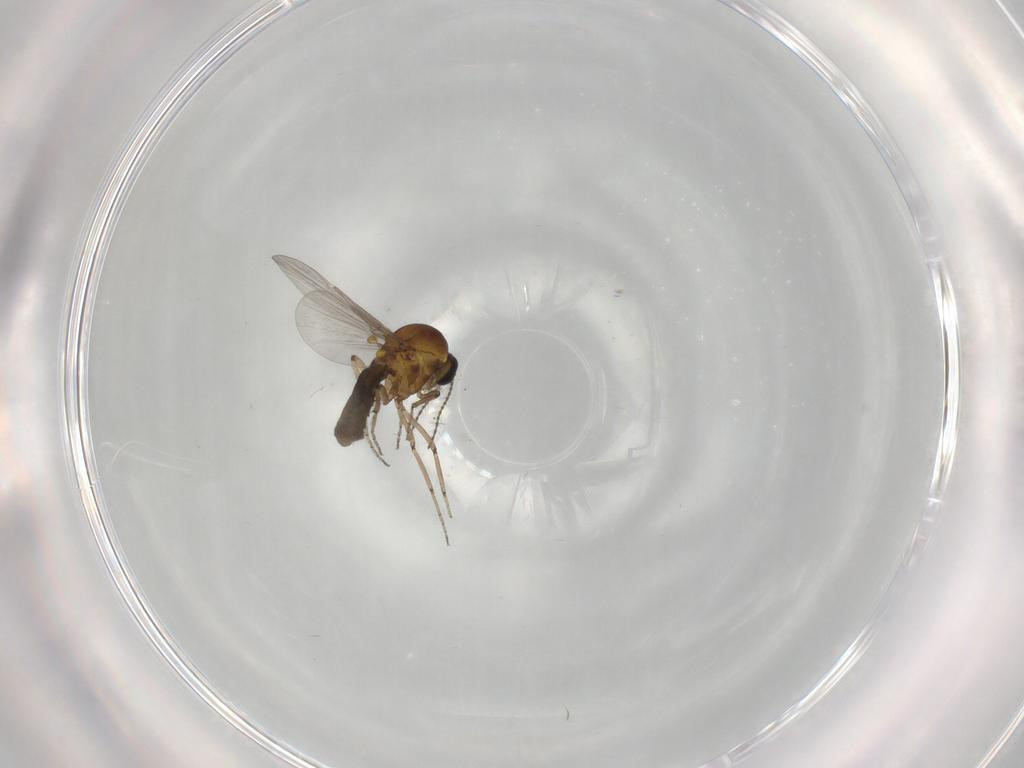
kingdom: Animalia
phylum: Arthropoda
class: Insecta
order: Diptera
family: Ceratopogonidae
